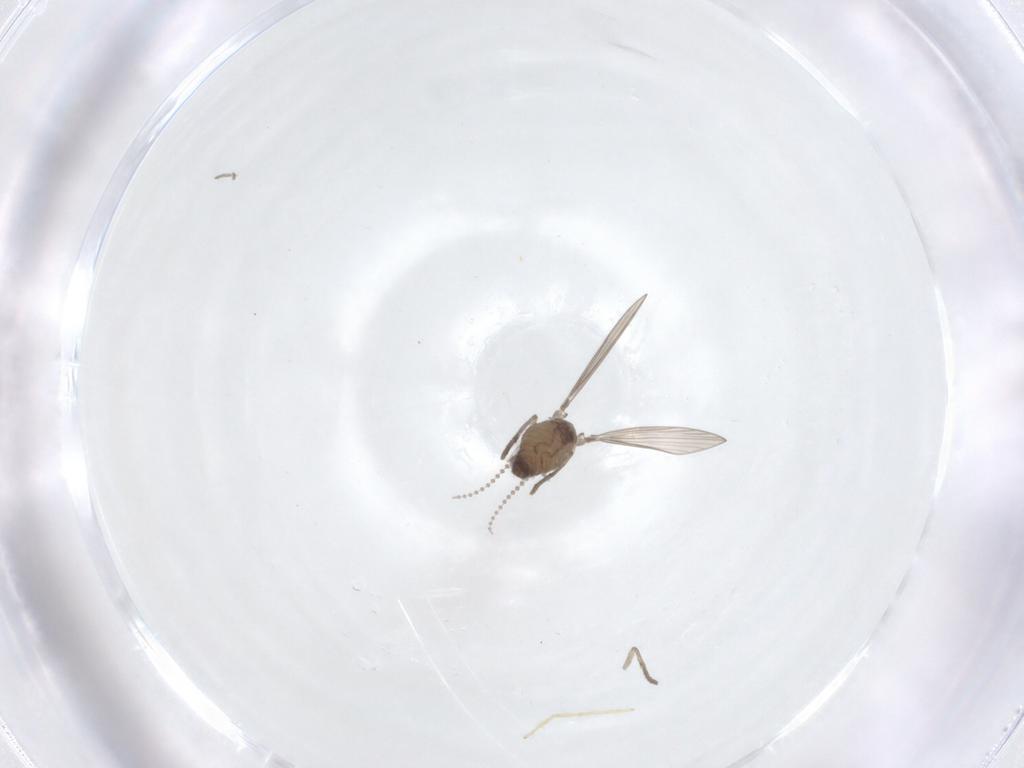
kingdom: Animalia
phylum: Arthropoda
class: Insecta
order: Diptera
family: Psychodidae
